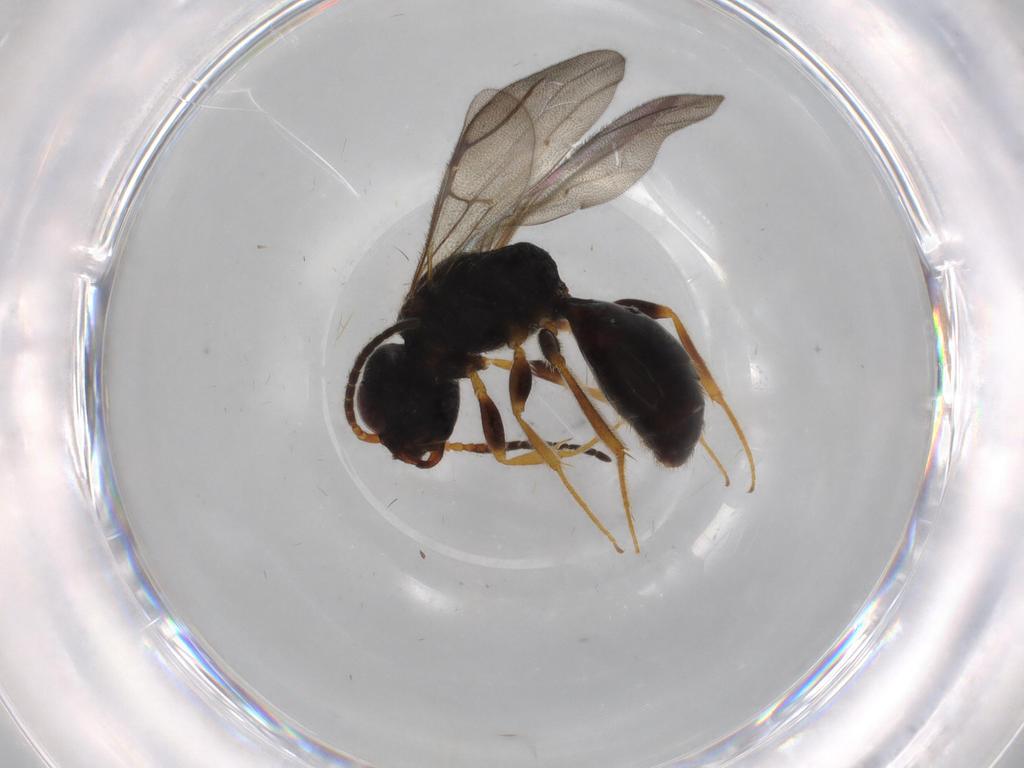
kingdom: Animalia
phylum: Arthropoda
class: Insecta
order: Hymenoptera
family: Bethylidae
